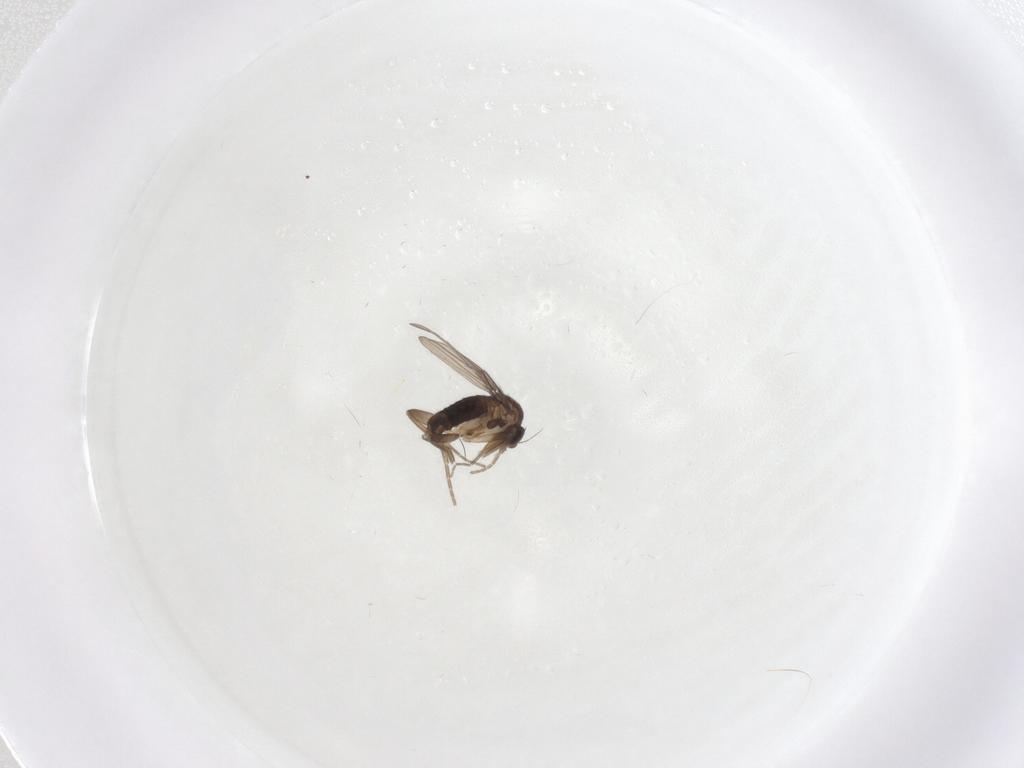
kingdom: Animalia
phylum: Arthropoda
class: Insecta
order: Diptera
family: Phoridae
